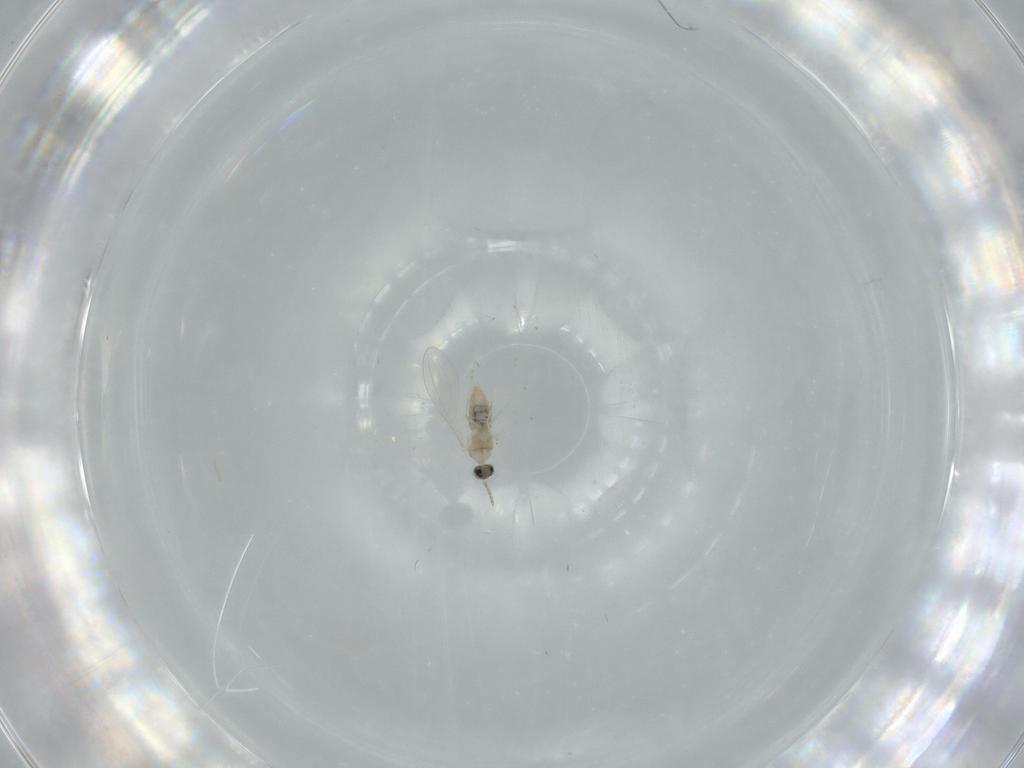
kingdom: Animalia
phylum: Arthropoda
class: Insecta
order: Diptera
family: Cecidomyiidae
